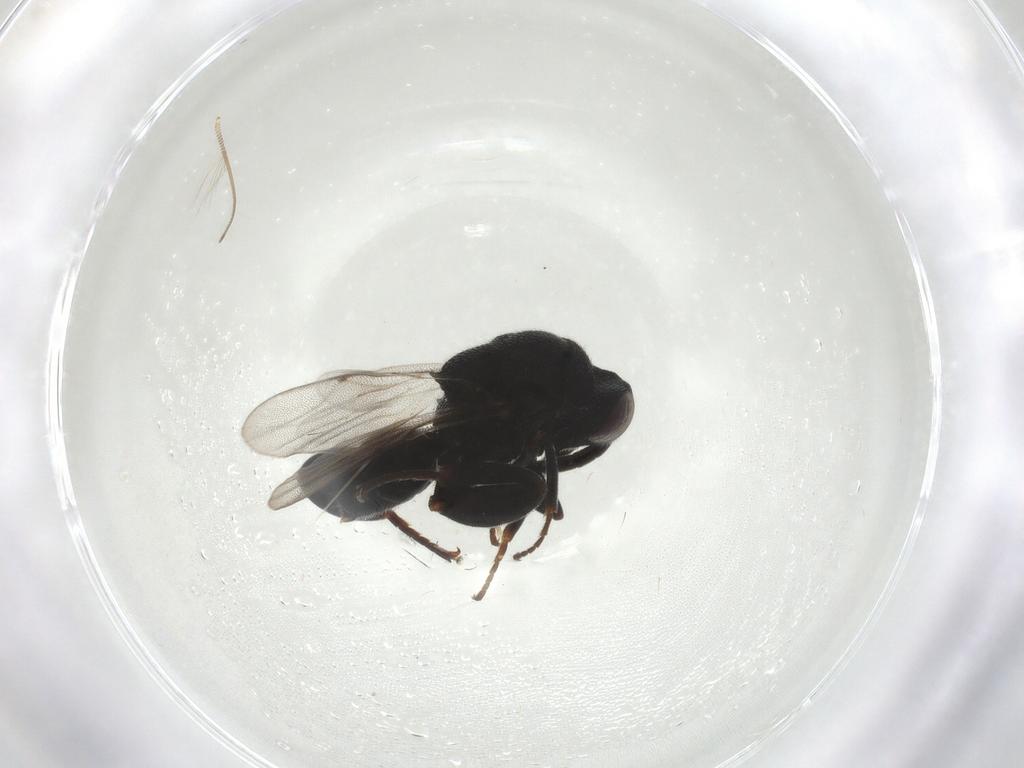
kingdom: Animalia
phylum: Arthropoda
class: Insecta
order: Hymenoptera
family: Chalcididae
